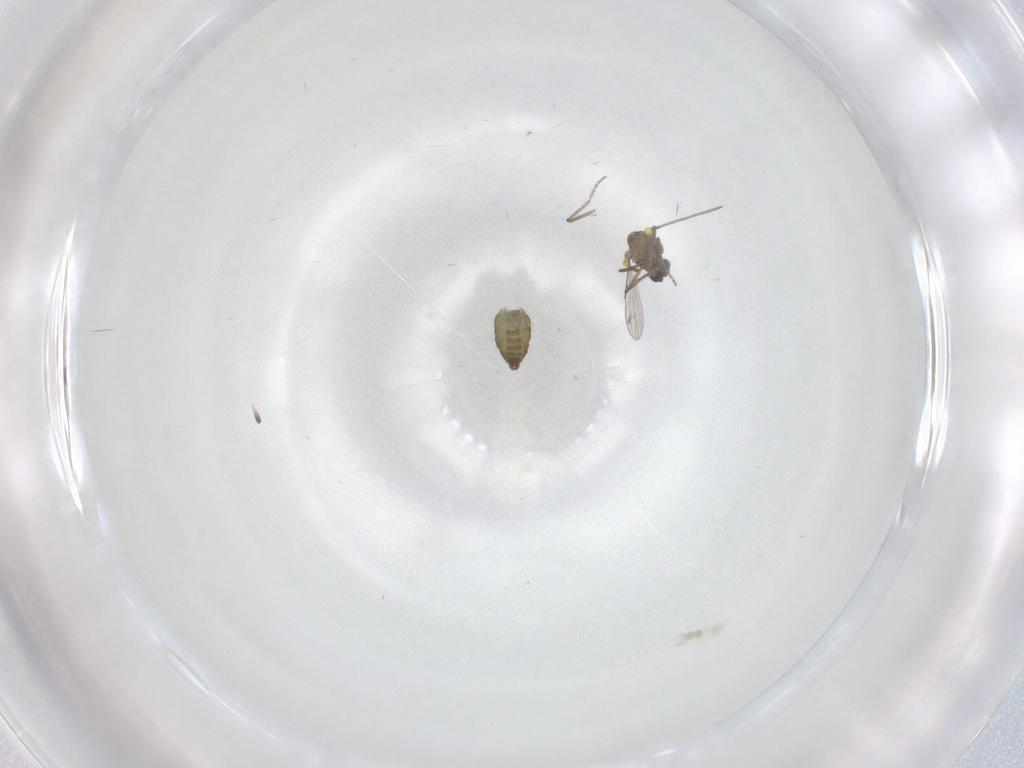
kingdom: Animalia
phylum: Arthropoda
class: Insecta
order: Diptera
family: Ceratopogonidae
